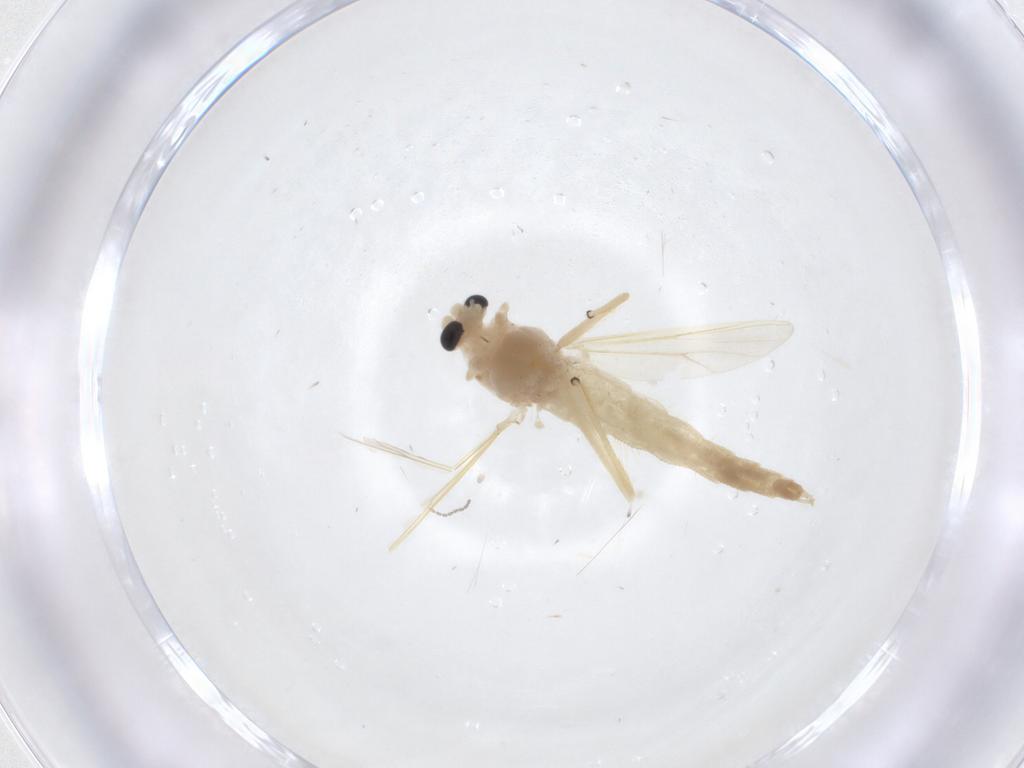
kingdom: Animalia
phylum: Arthropoda
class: Insecta
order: Diptera
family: Chironomidae
